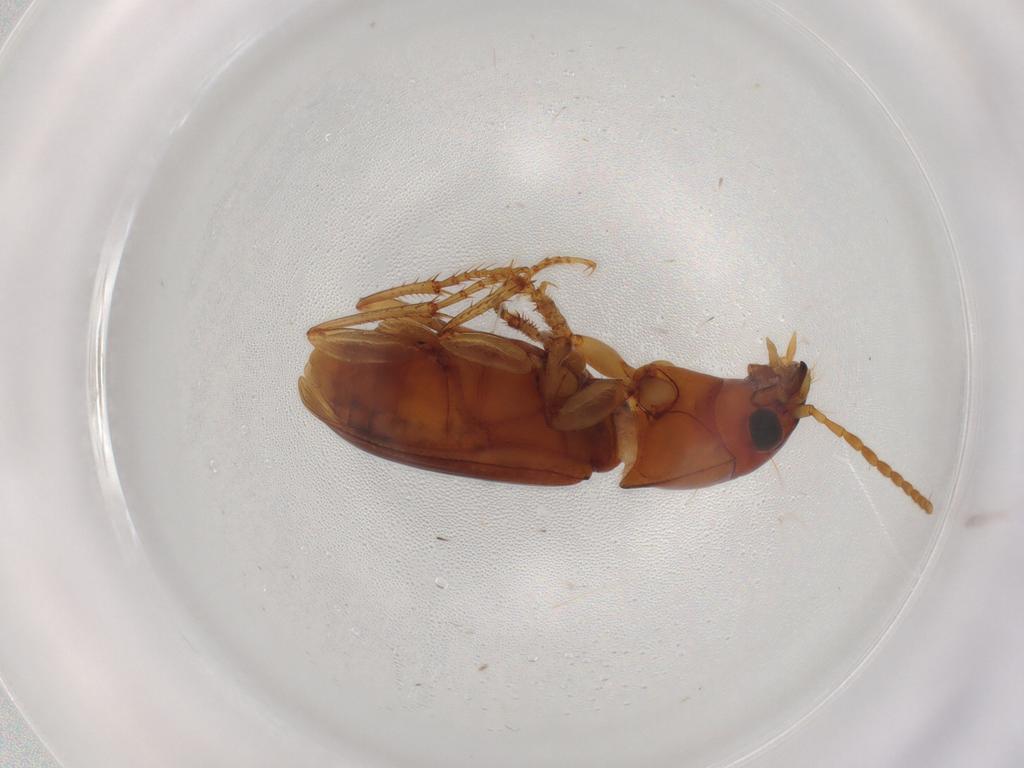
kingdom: Animalia
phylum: Arthropoda
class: Insecta
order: Coleoptera
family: Carabidae
